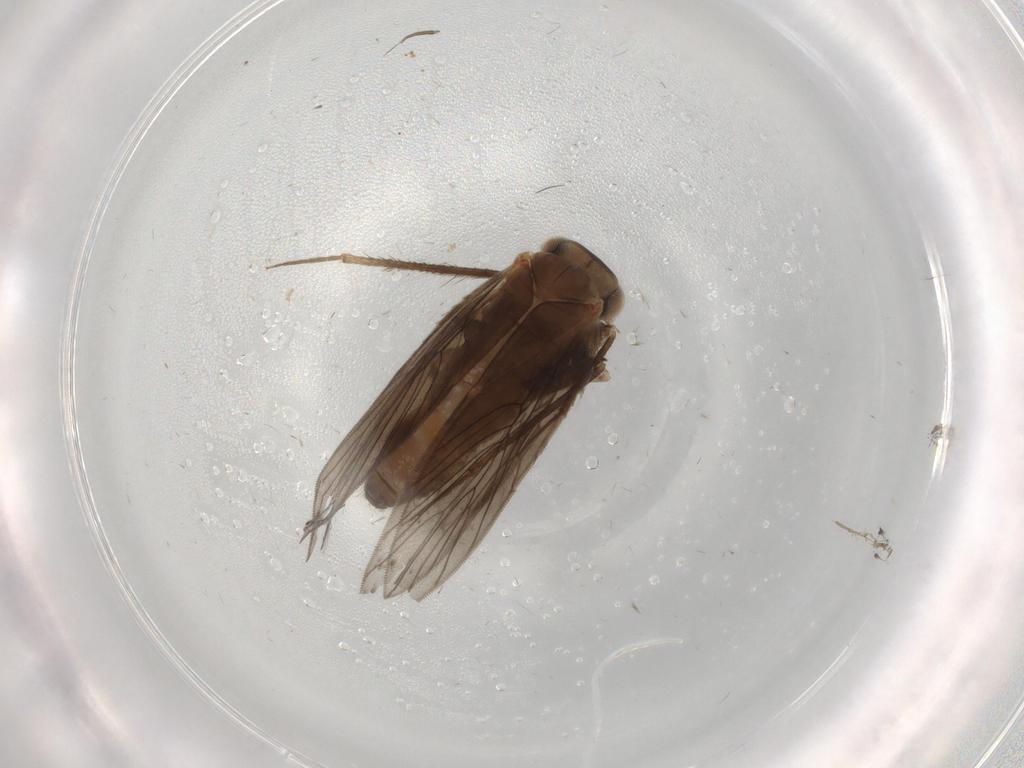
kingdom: Animalia
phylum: Arthropoda
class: Insecta
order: Psocodea
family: Lepidopsocidae
